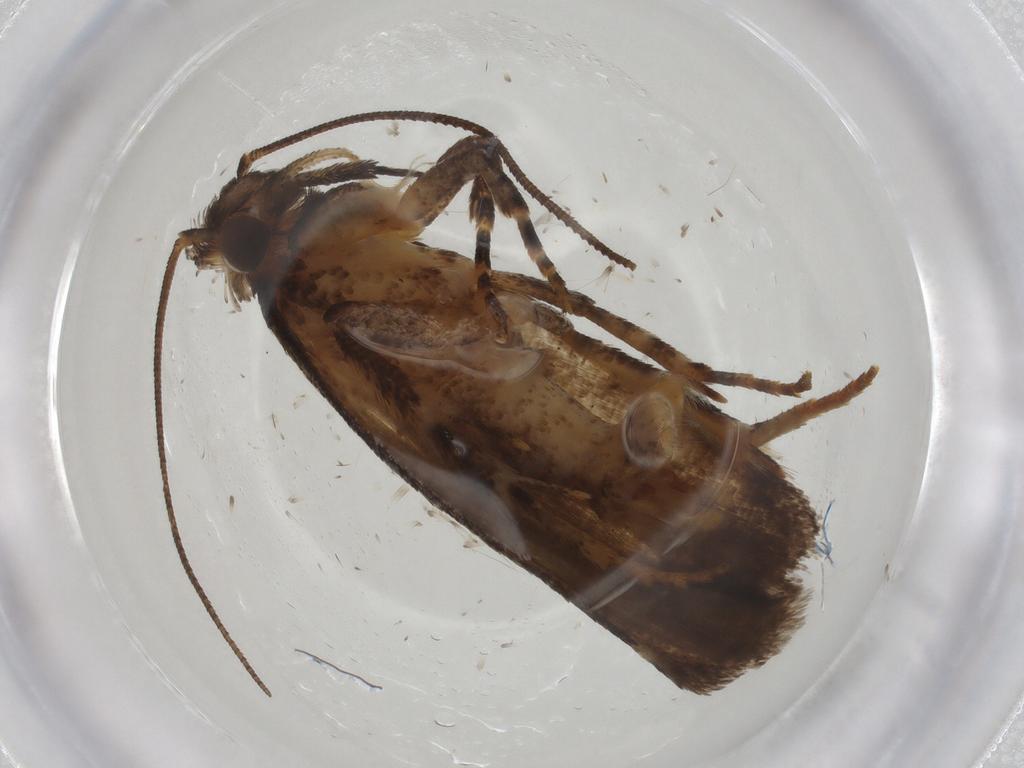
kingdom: Animalia
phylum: Arthropoda
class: Insecta
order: Lepidoptera
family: Gelechiidae
